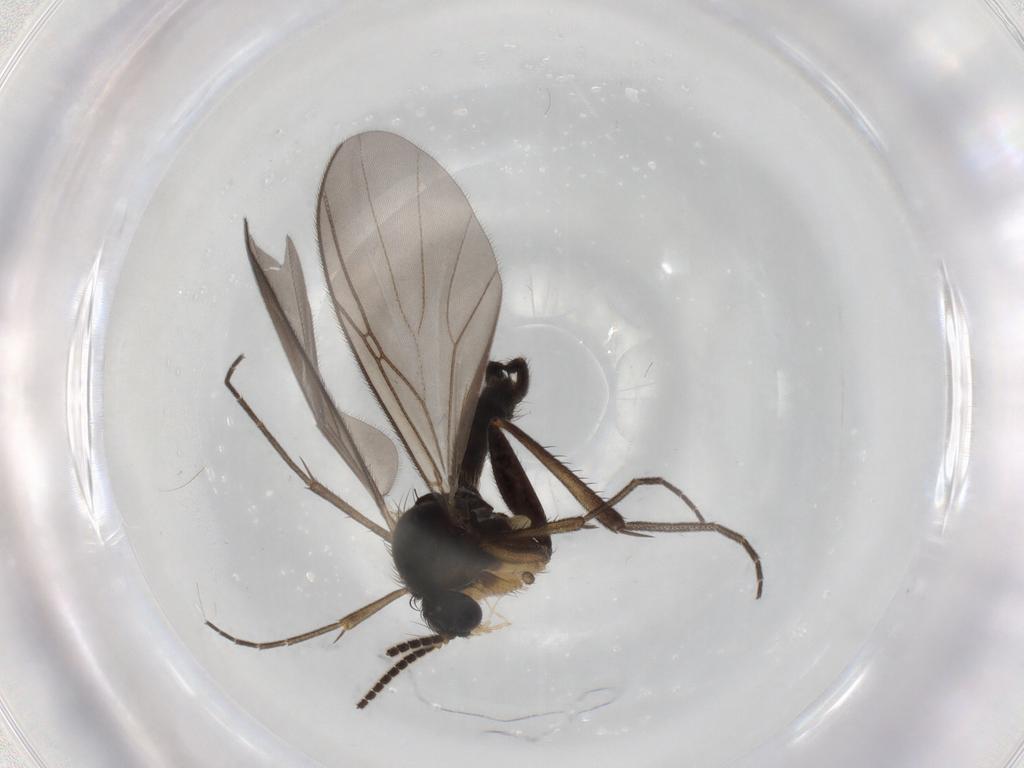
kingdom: Animalia
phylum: Arthropoda
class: Insecta
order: Diptera
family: Mycetophilidae
